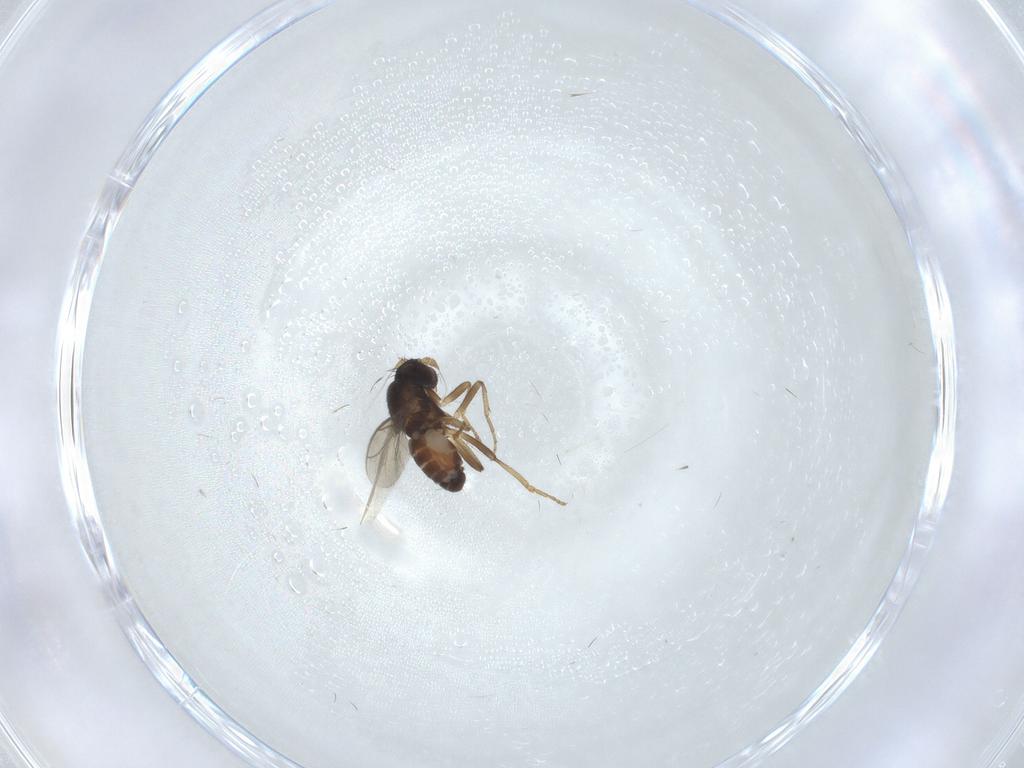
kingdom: Animalia
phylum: Arthropoda
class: Insecta
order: Diptera
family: Sphaeroceridae
